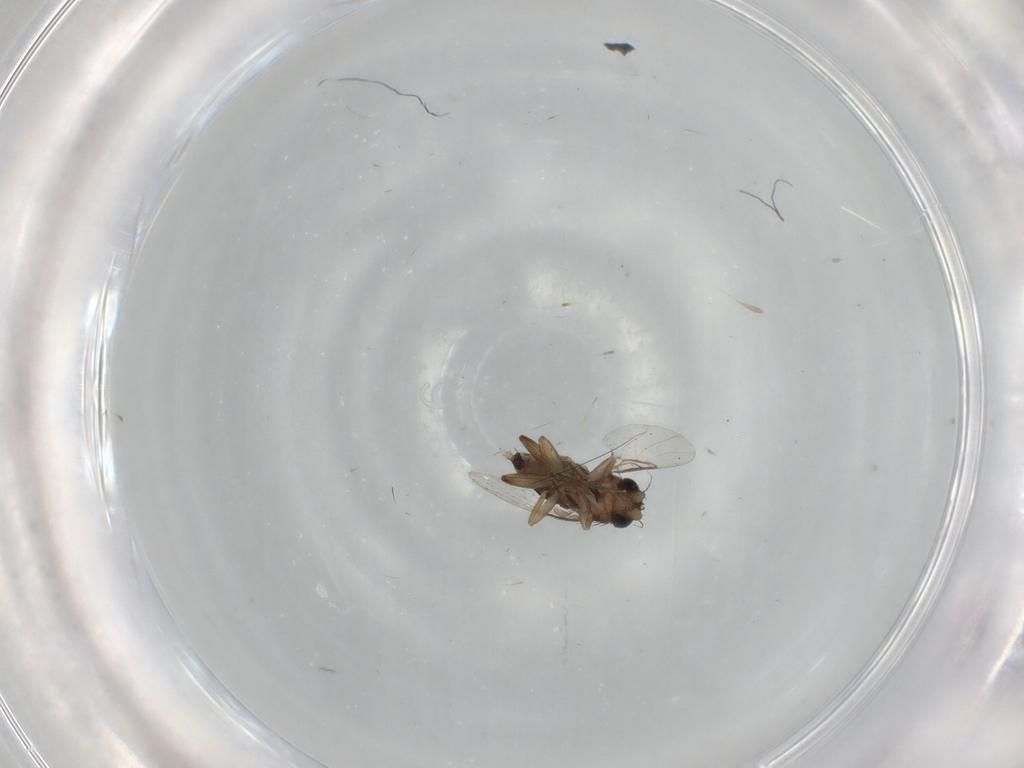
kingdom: Animalia
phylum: Arthropoda
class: Insecta
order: Diptera
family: Phoridae
